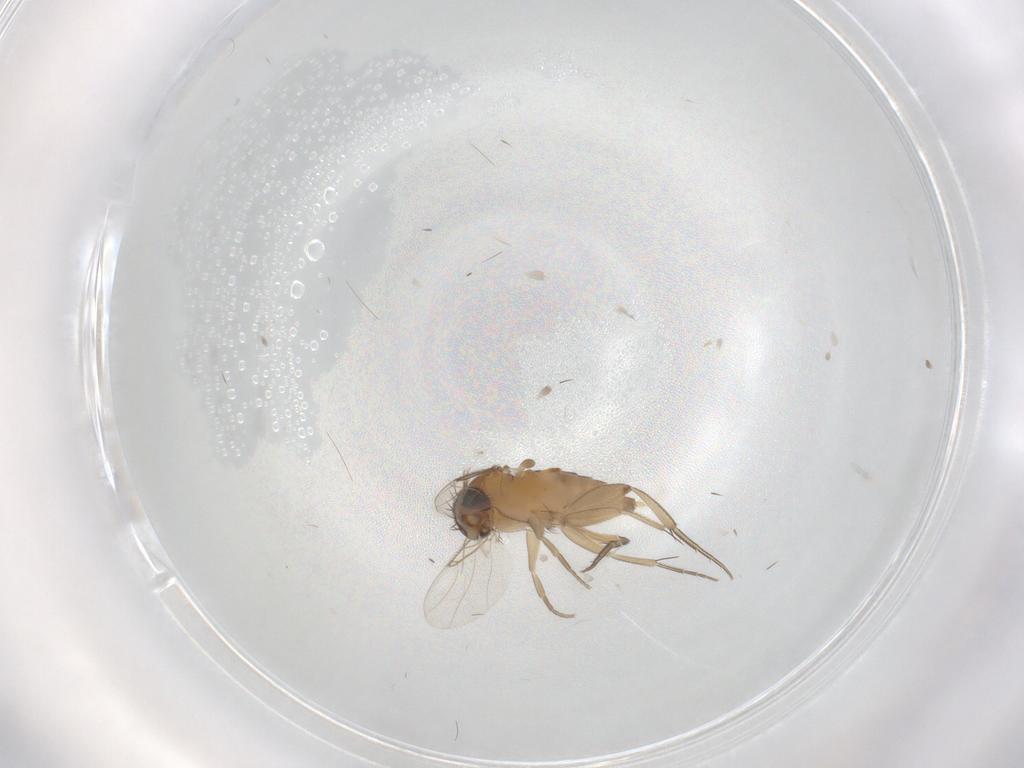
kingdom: Animalia
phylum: Arthropoda
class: Insecta
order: Diptera
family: Phoridae
